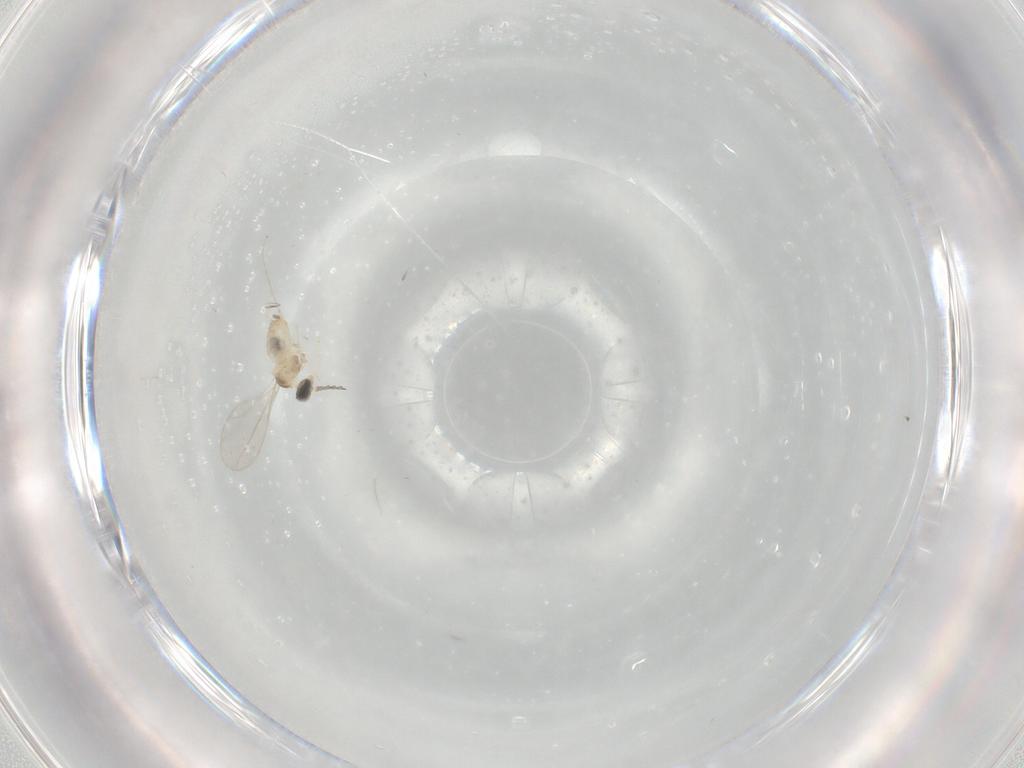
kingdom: Animalia
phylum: Arthropoda
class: Insecta
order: Diptera
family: Cecidomyiidae
